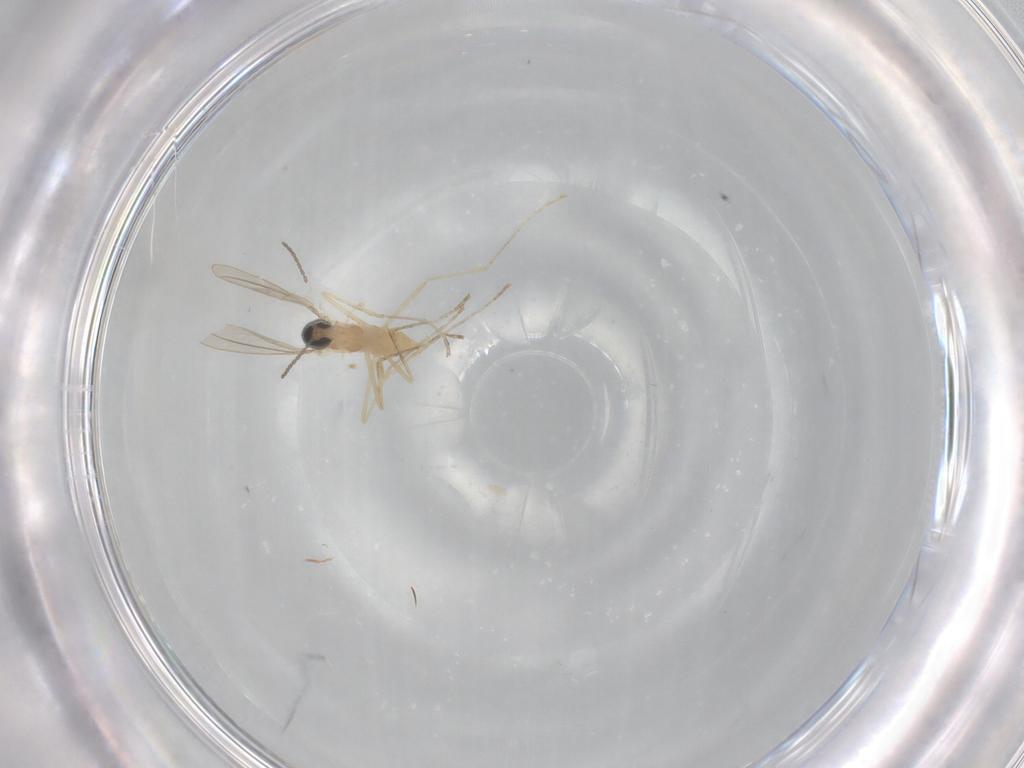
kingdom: Animalia
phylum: Arthropoda
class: Insecta
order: Diptera
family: Cecidomyiidae
